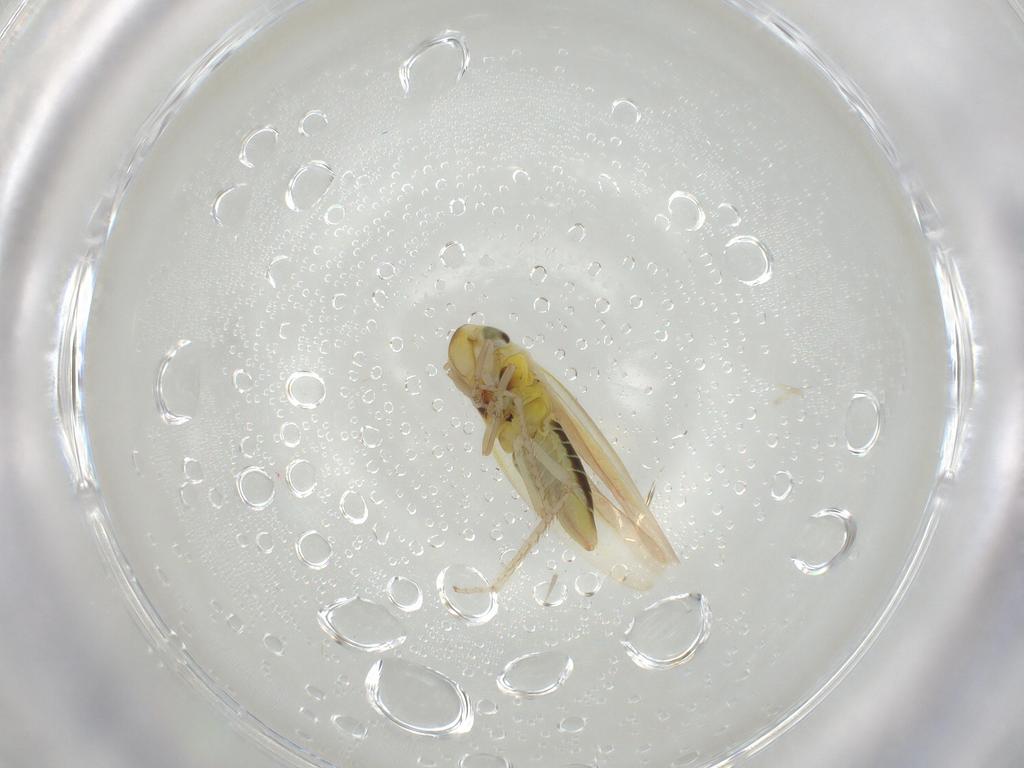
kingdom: Animalia
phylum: Arthropoda
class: Insecta
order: Hemiptera
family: Cicadellidae
